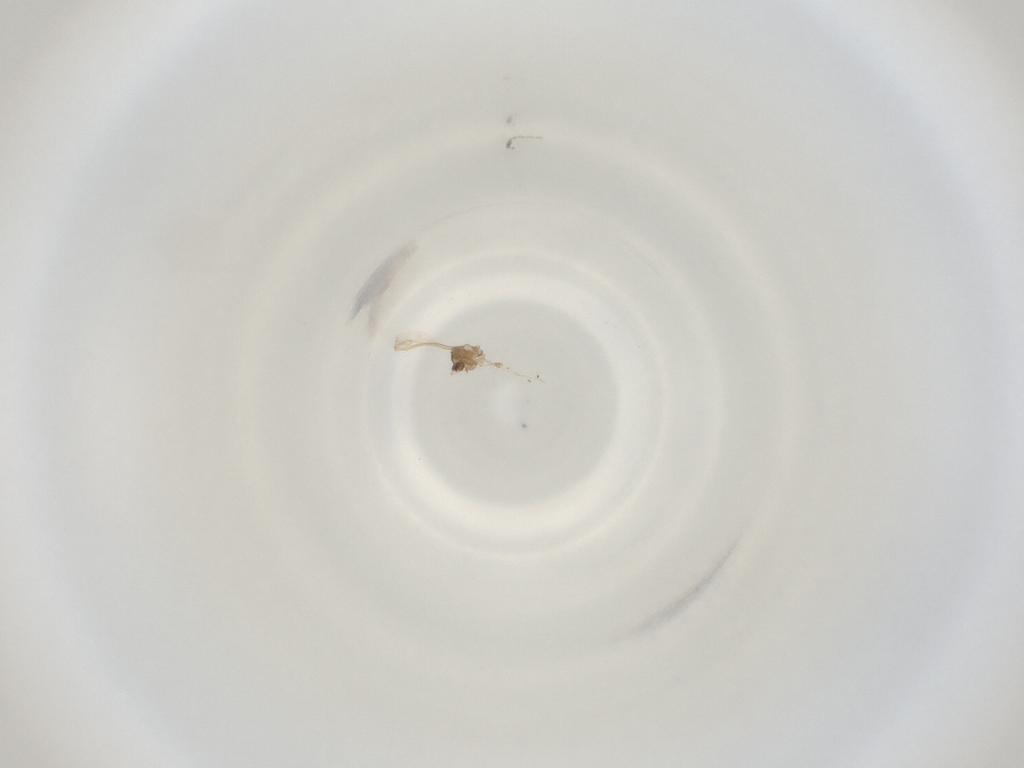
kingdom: Animalia
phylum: Arthropoda
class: Insecta
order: Diptera
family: Cecidomyiidae
